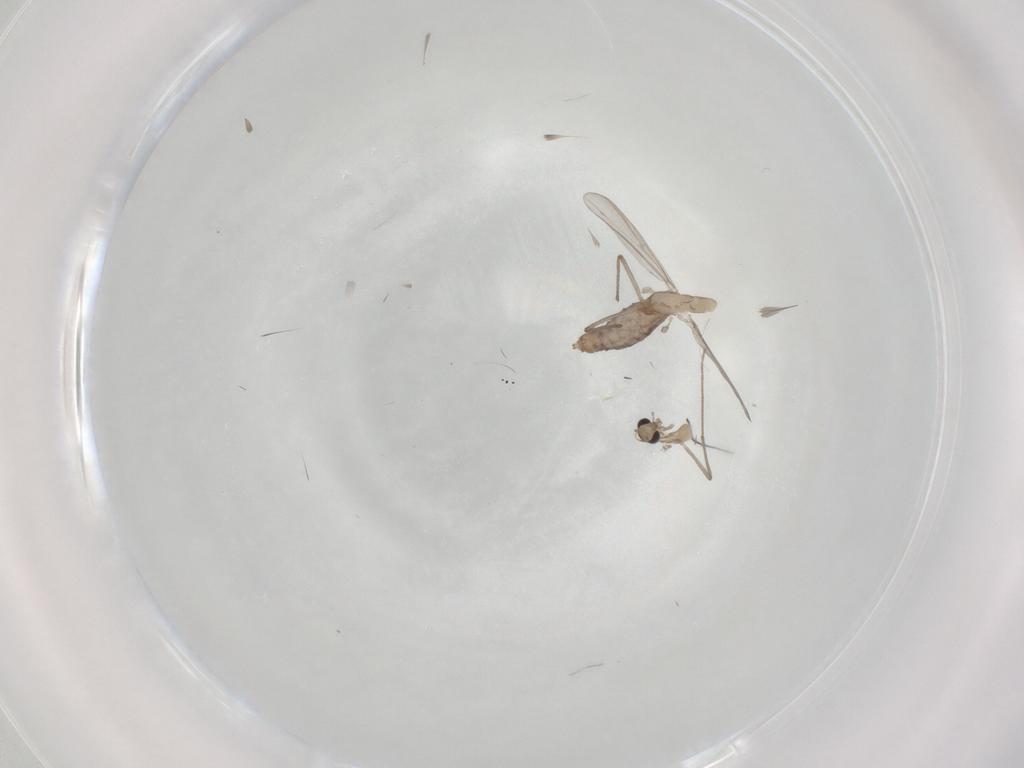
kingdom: Animalia
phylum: Arthropoda
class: Insecta
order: Diptera
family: Chironomidae
